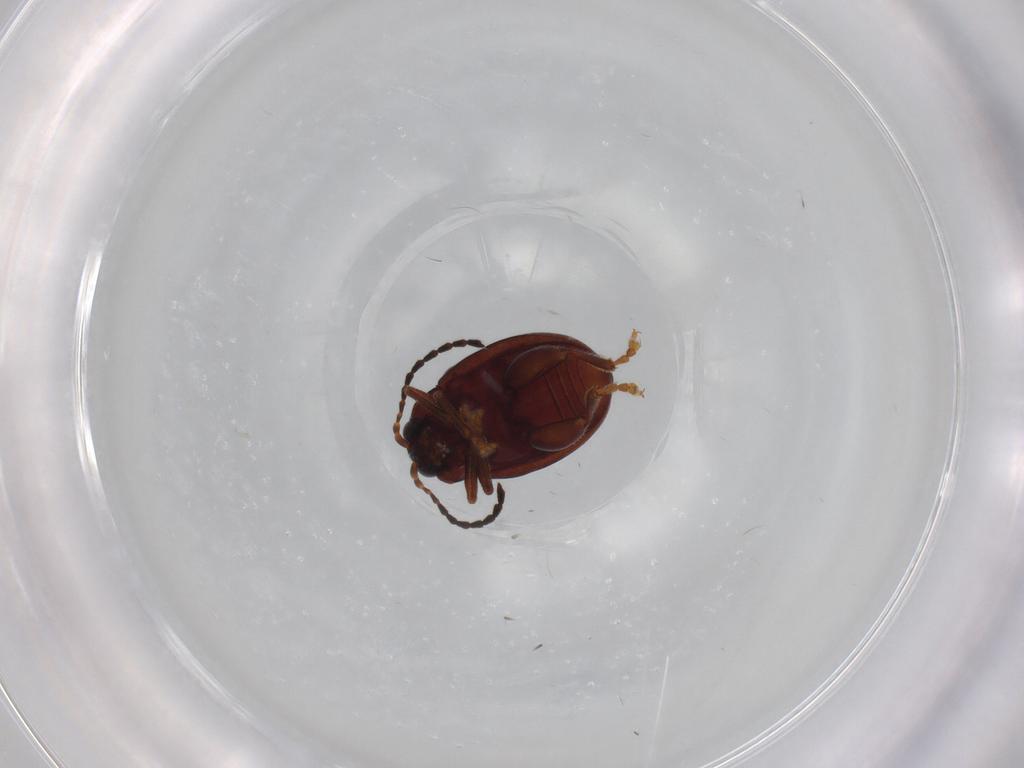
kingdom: Animalia
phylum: Arthropoda
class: Insecta
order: Coleoptera
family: Chrysomelidae
